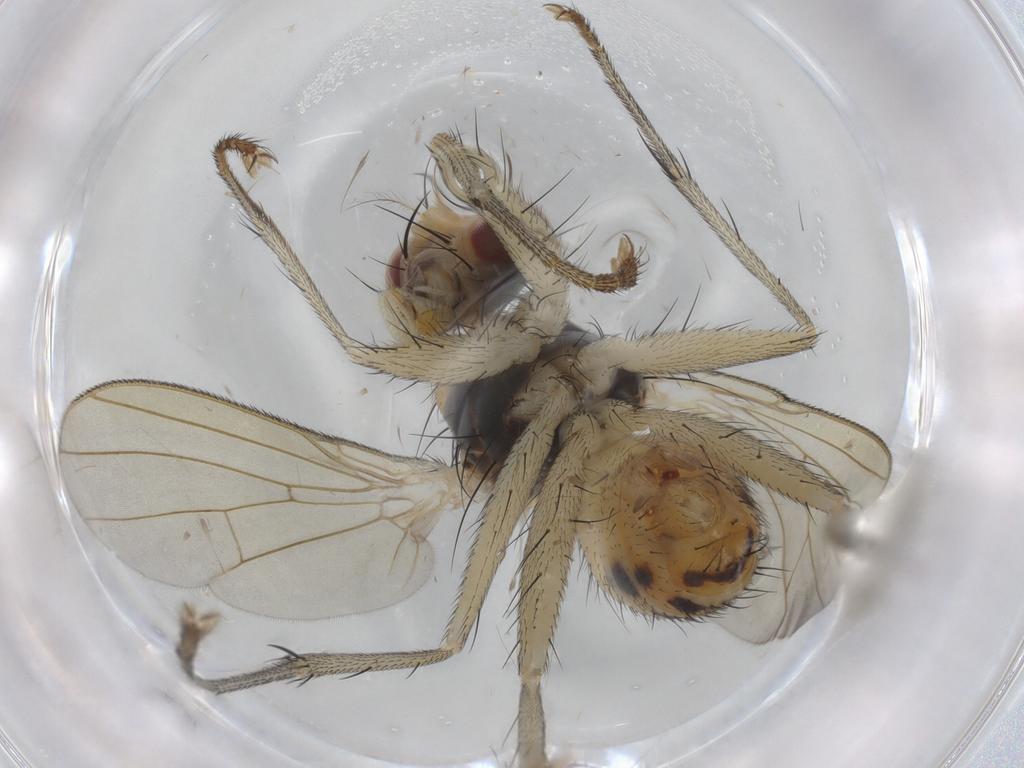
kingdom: Animalia
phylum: Arthropoda
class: Insecta
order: Diptera
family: Muscidae
